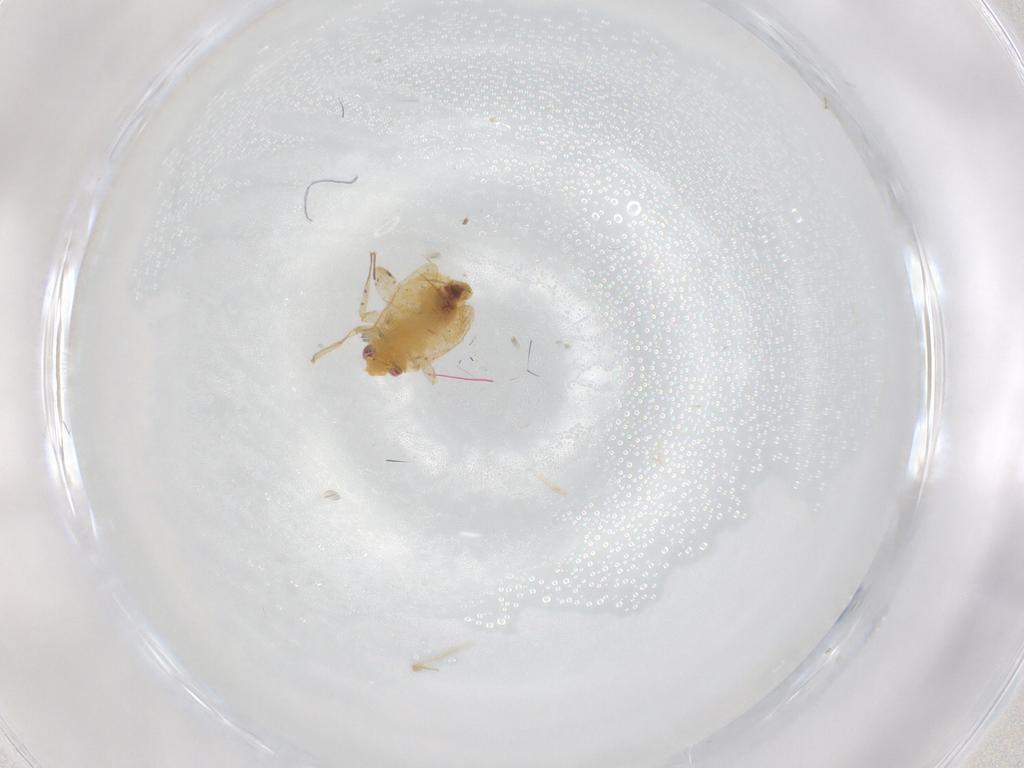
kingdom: Animalia
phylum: Arthropoda
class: Insecta
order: Hemiptera
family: Miridae
